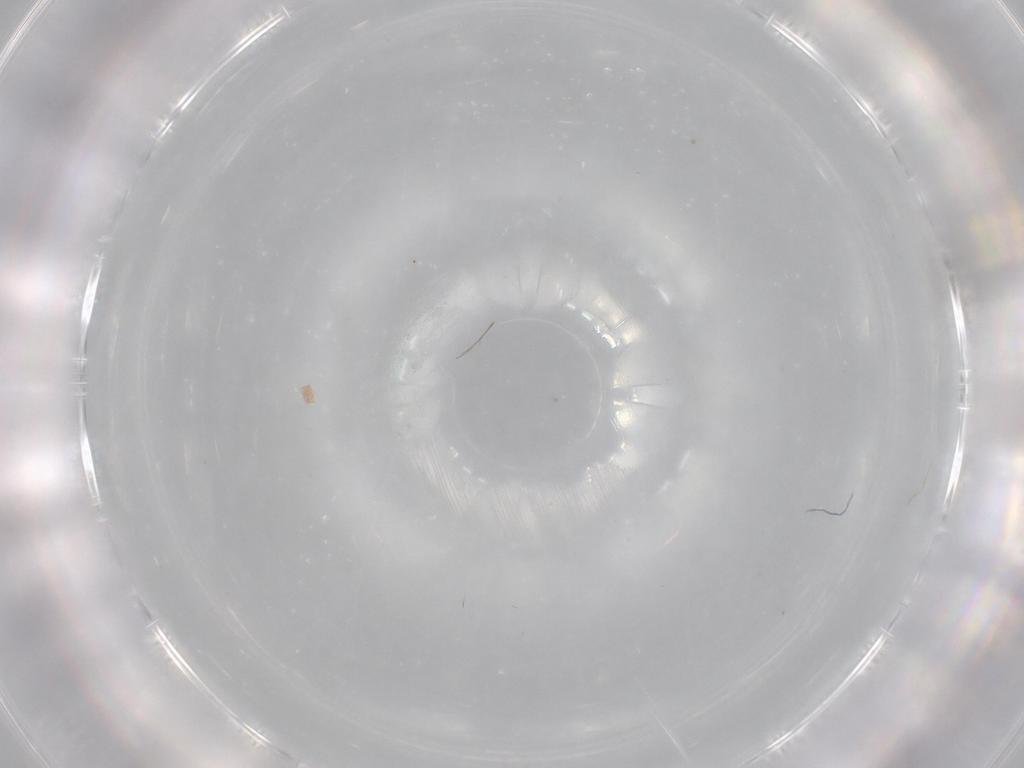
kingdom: Animalia
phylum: Arthropoda
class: Insecta
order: Diptera
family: Cecidomyiidae
